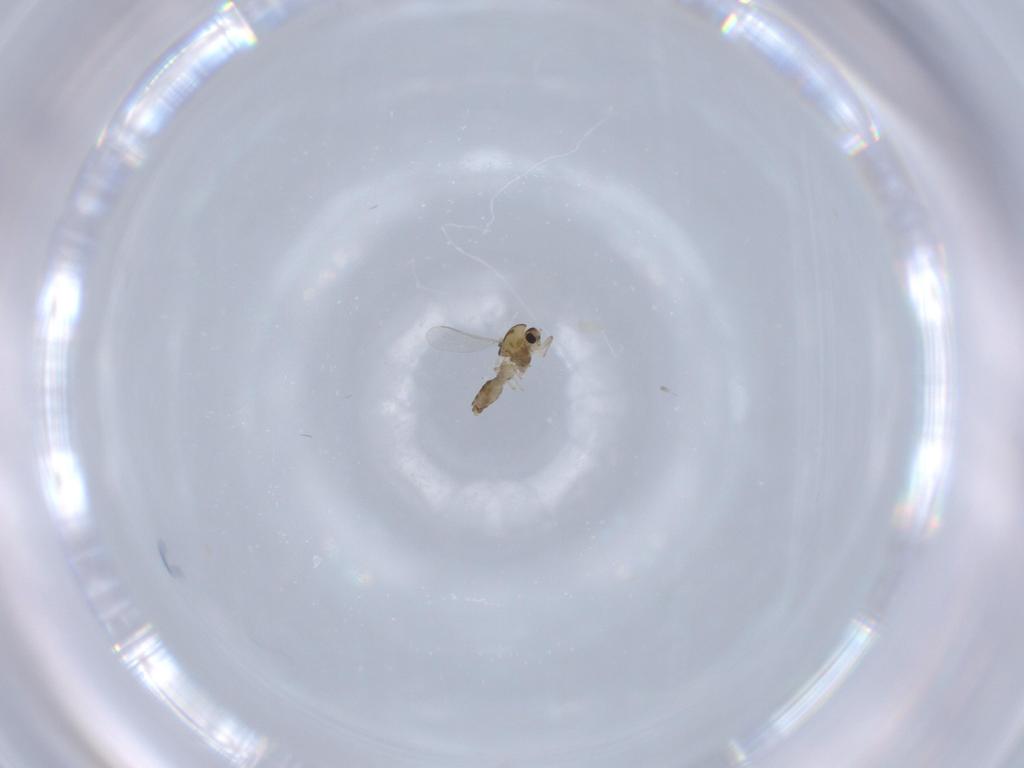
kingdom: Animalia
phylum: Arthropoda
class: Insecta
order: Diptera
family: Chironomidae
